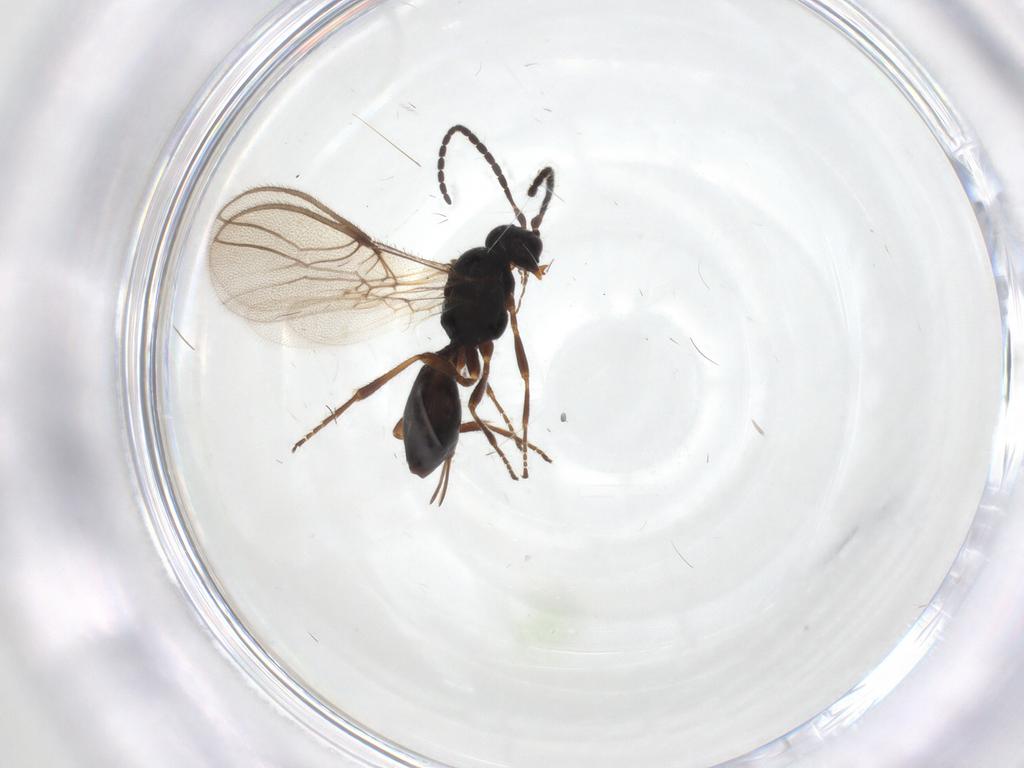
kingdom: Animalia
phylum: Arthropoda
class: Insecta
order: Hymenoptera
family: Braconidae
